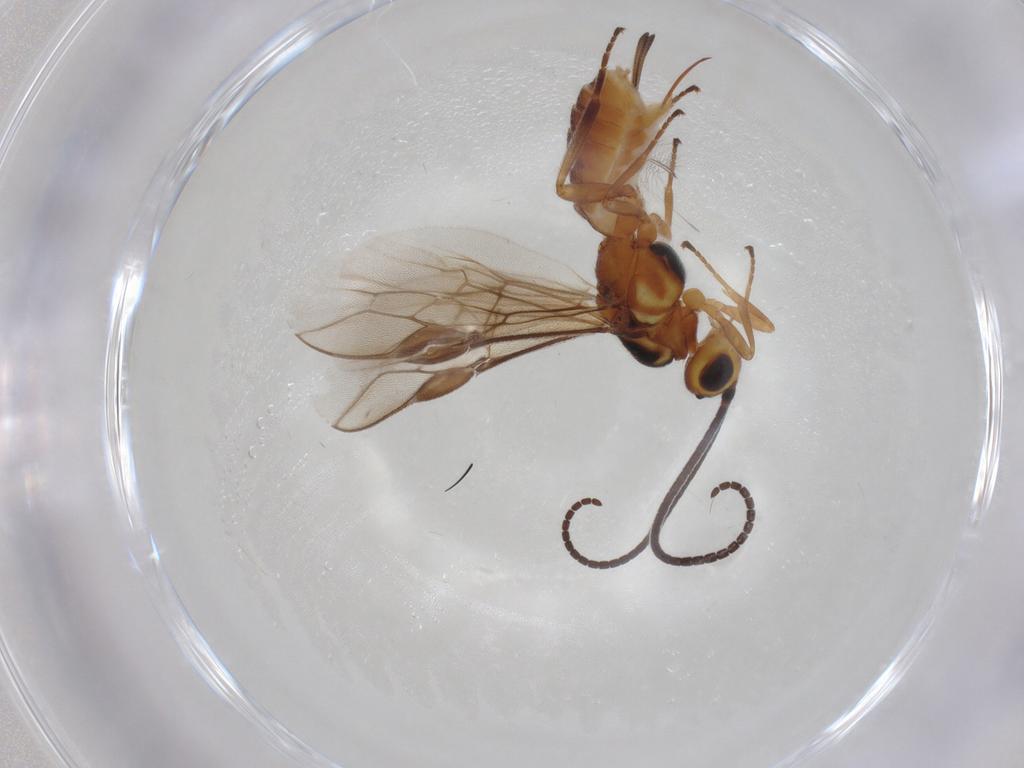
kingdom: Animalia
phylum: Arthropoda
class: Insecta
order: Hymenoptera
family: Braconidae
